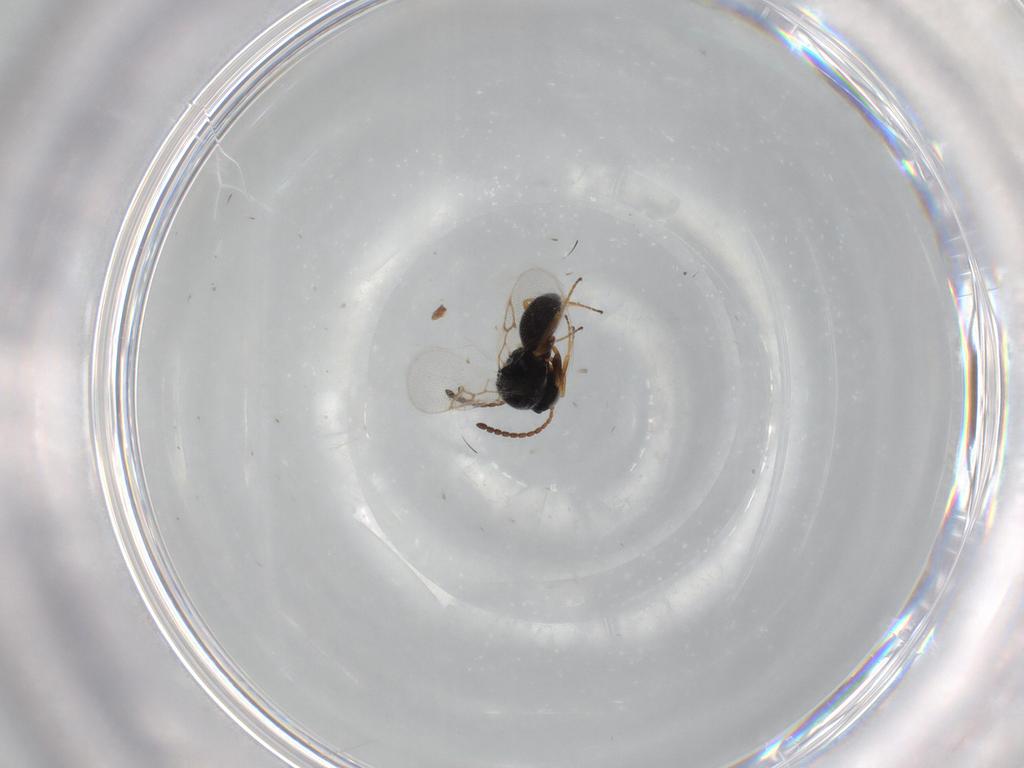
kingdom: Animalia
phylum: Arthropoda
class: Insecta
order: Hymenoptera
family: Figitidae
